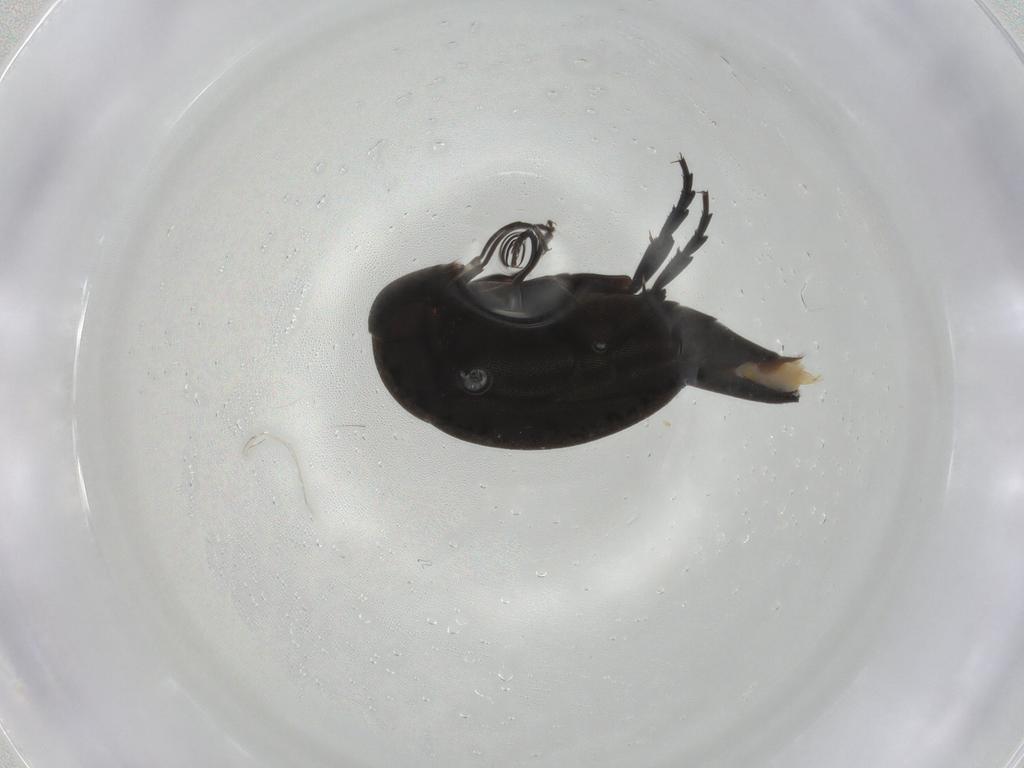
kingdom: Animalia
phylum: Arthropoda
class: Insecta
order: Coleoptera
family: Mordellidae
